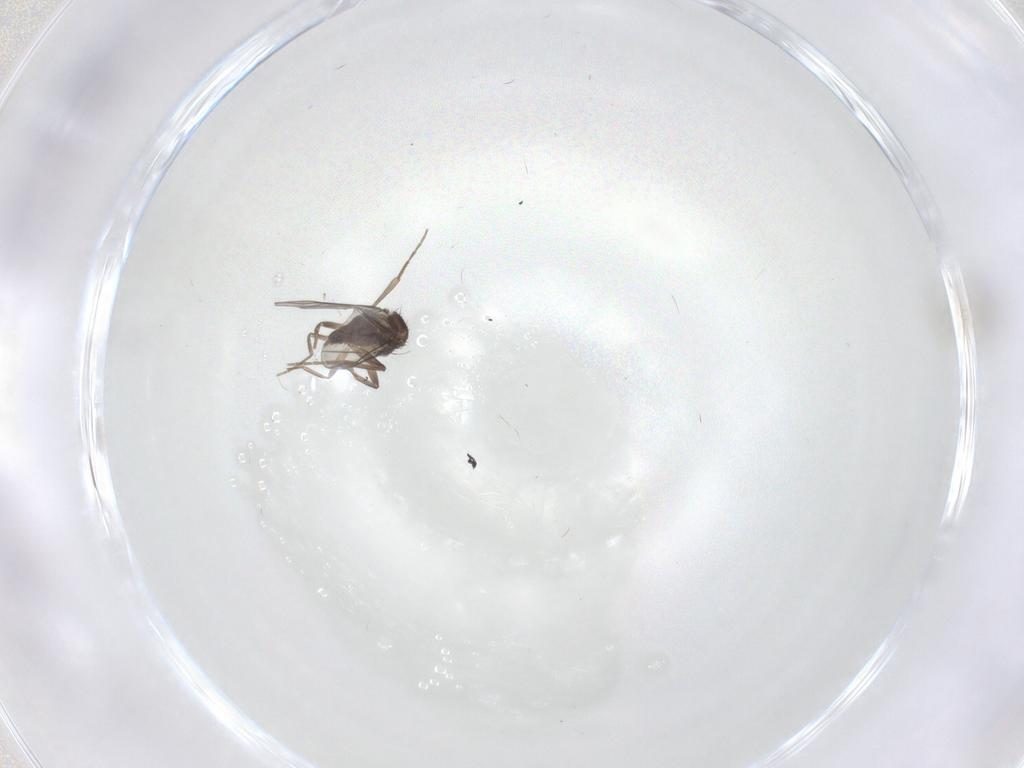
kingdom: Animalia
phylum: Arthropoda
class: Insecta
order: Diptera
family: Cecidomyiidae
